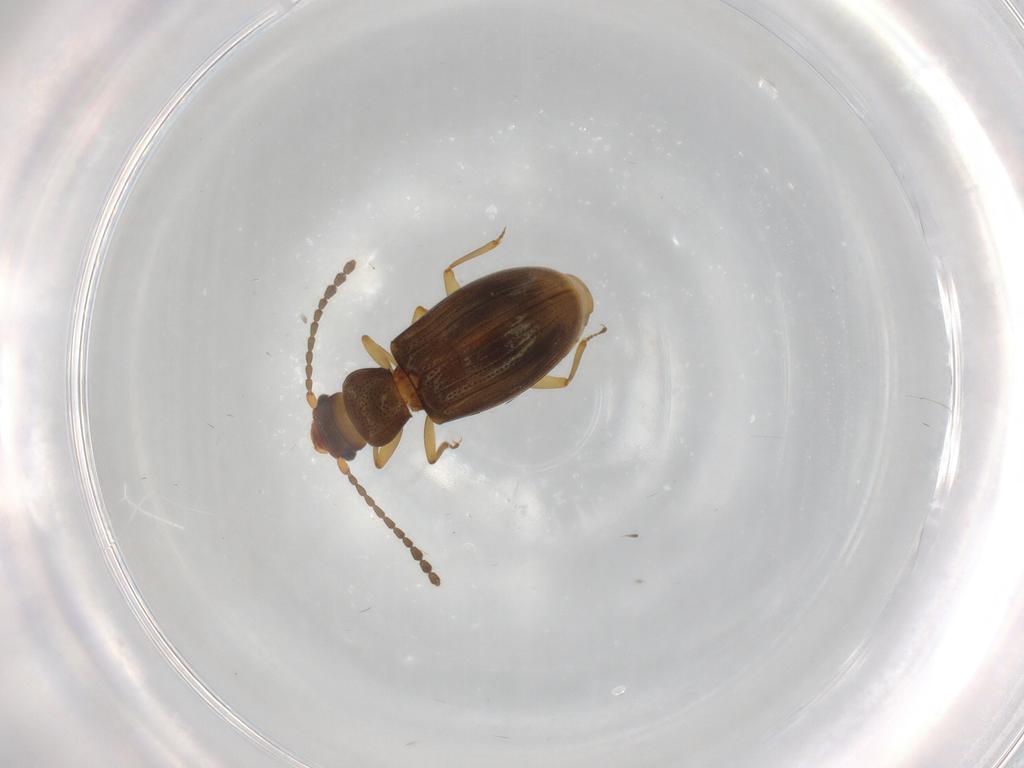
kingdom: Animalia
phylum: Arthropoda
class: Insecta
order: Coleoptera
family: Laemophloeidae
